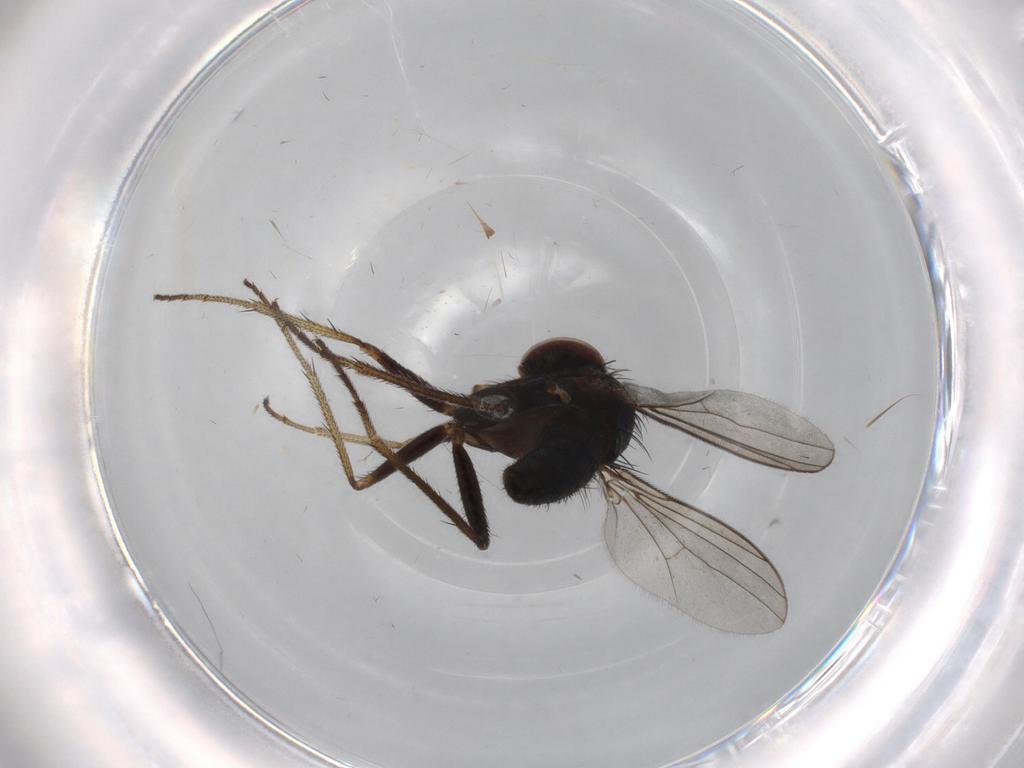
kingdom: Animalia
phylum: Arthropoda
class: Insecta
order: Diptera
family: Dolichopodidae
